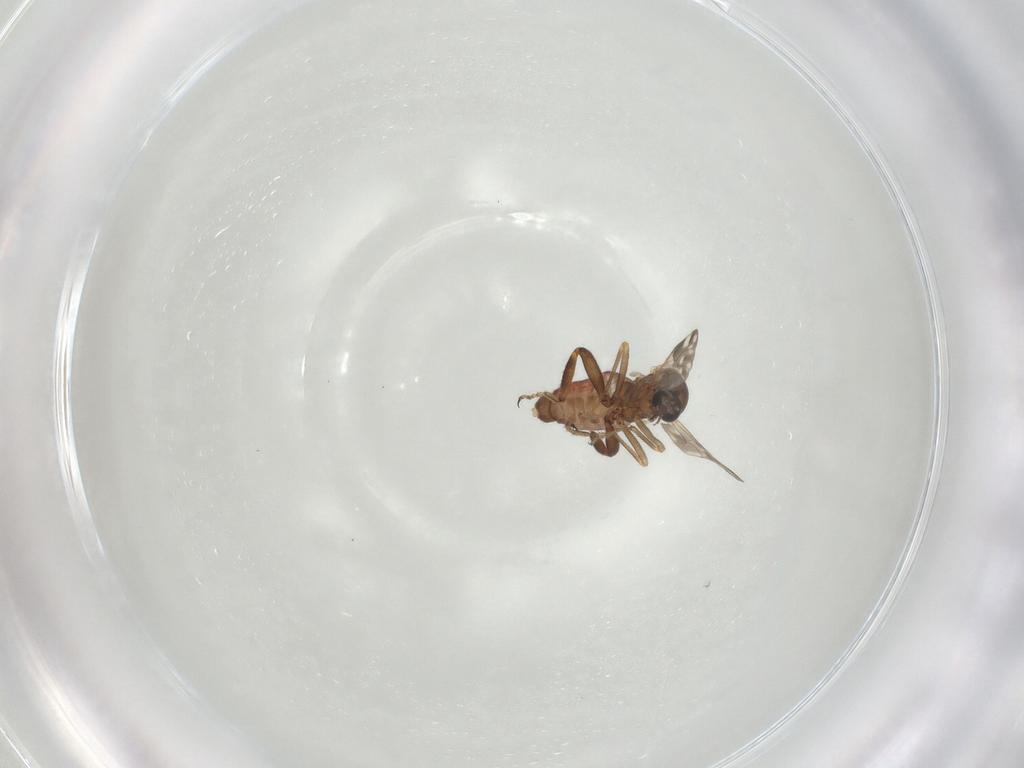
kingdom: Animalia
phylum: Arthropoda
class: Insecta
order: Diptera
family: Ceratopogonidae
